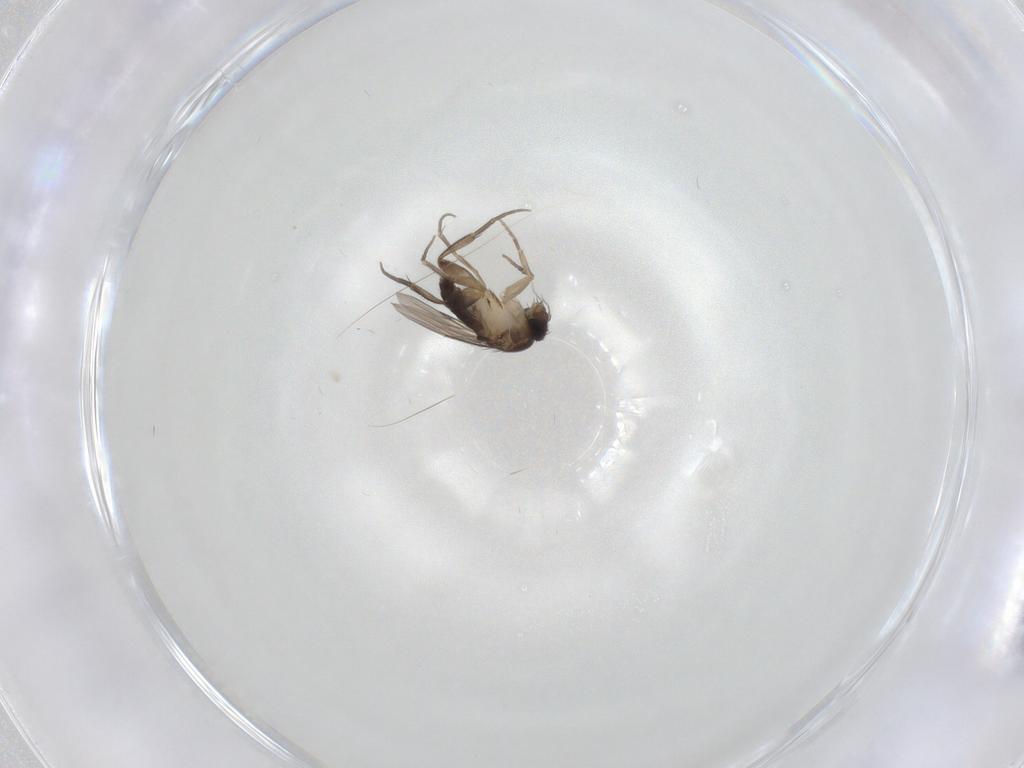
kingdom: Animalia
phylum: Arthropoda
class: Insecta
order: Diptera
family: Phoridae
